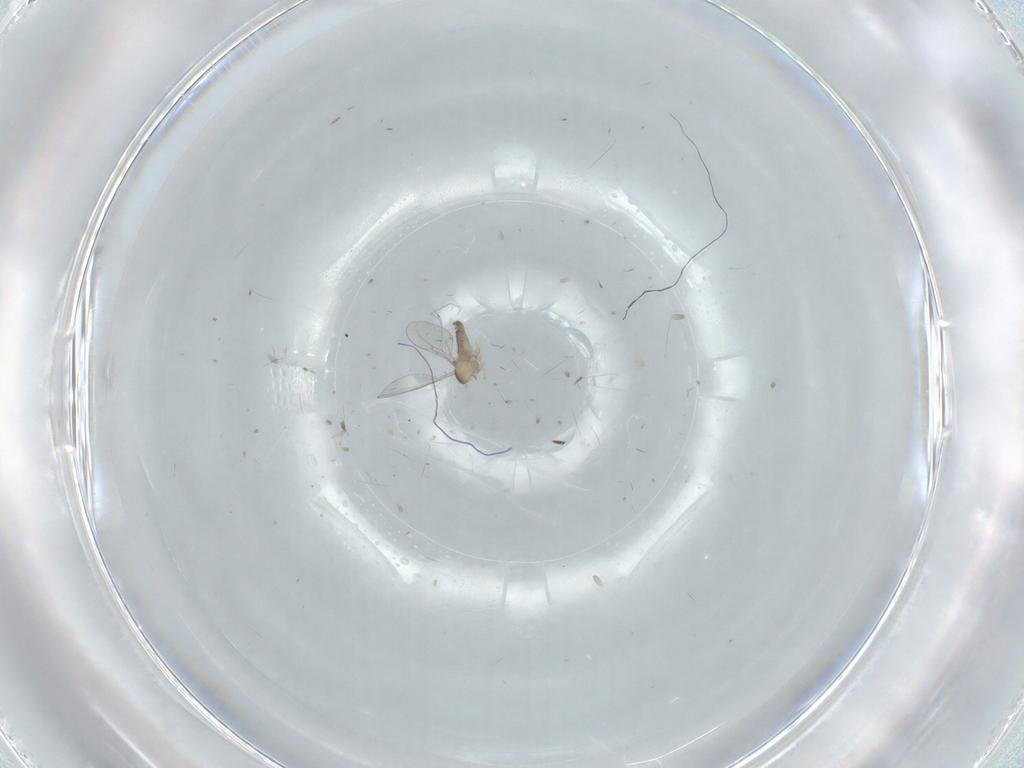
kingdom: Animalia
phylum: Arthropoda
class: Insecta
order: Diptera
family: Cecidomyiidae
